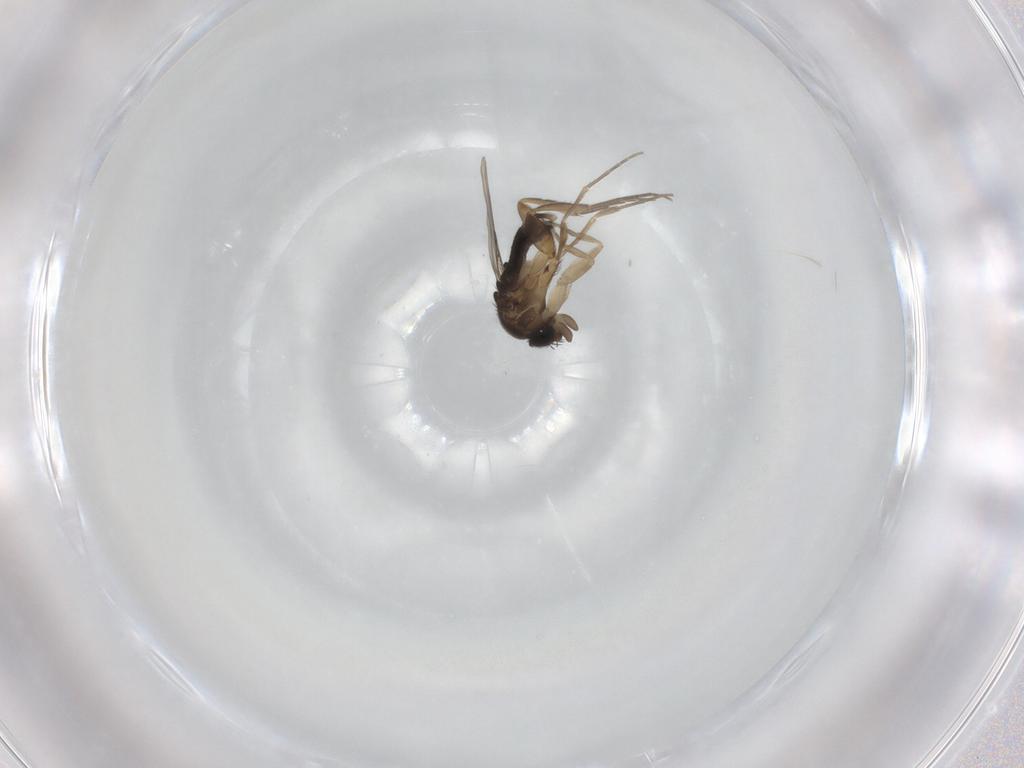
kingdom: Animalia
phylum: Arthropoda
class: Insecta
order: Diptera
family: Phoridae
